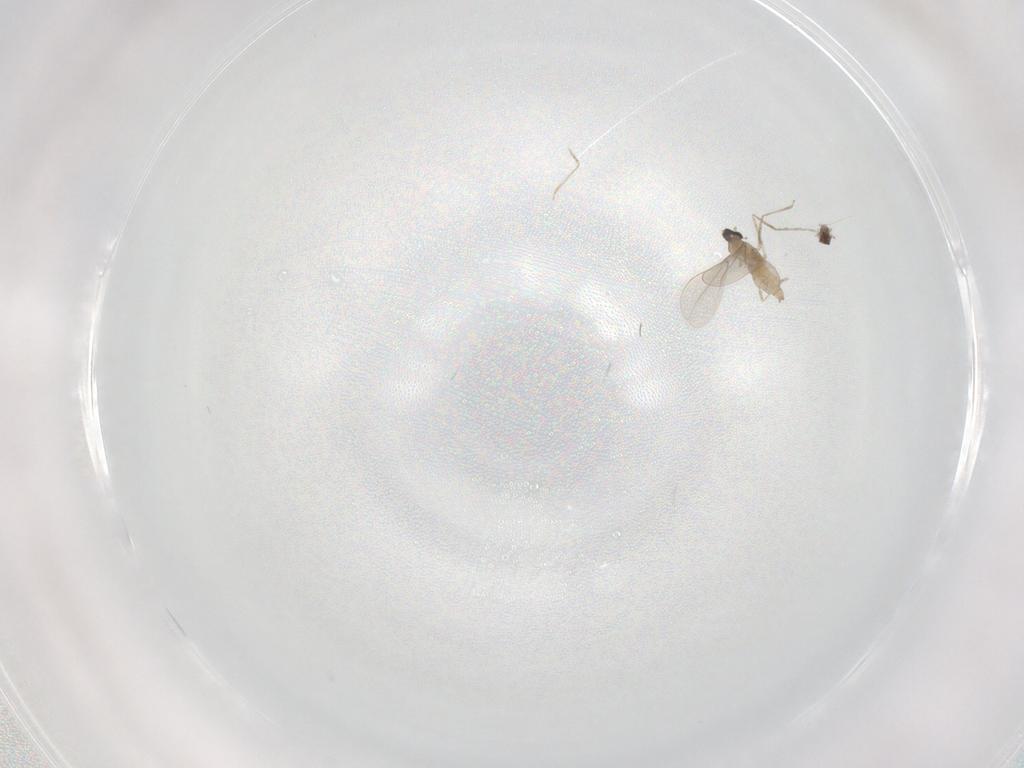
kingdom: Animalia
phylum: Arthropoda
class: Insecta
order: Diptera
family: Cecidomyiidae
